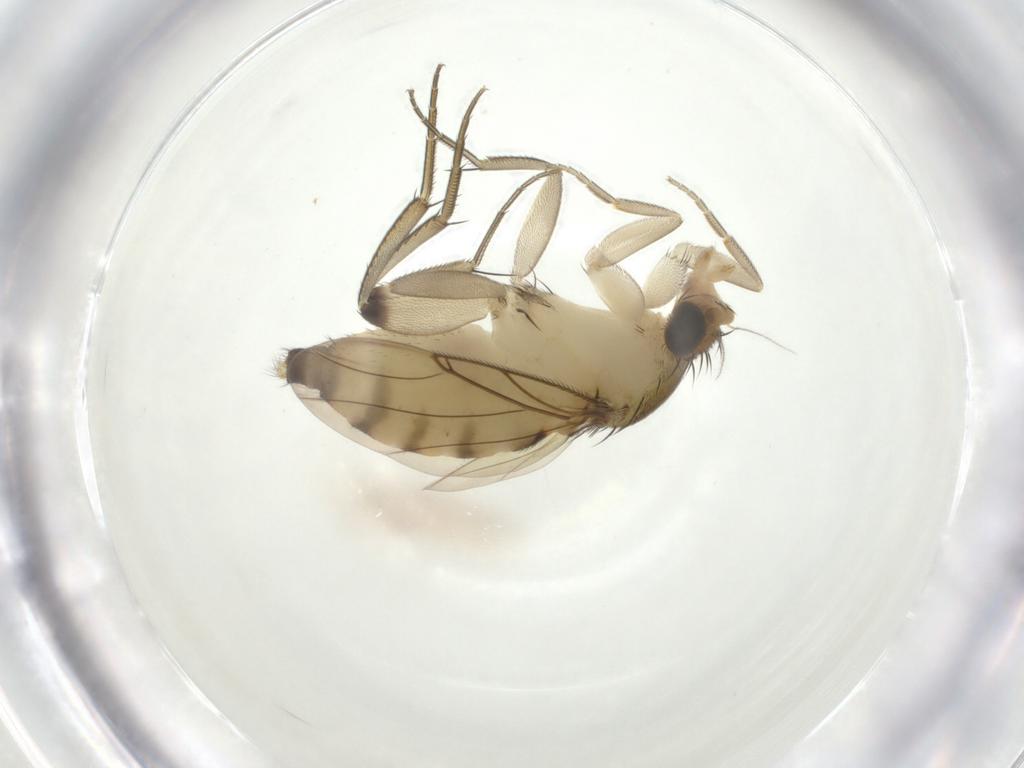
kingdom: Animalia
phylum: Arthropoda
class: Insecta
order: Diptera
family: Phoridae
